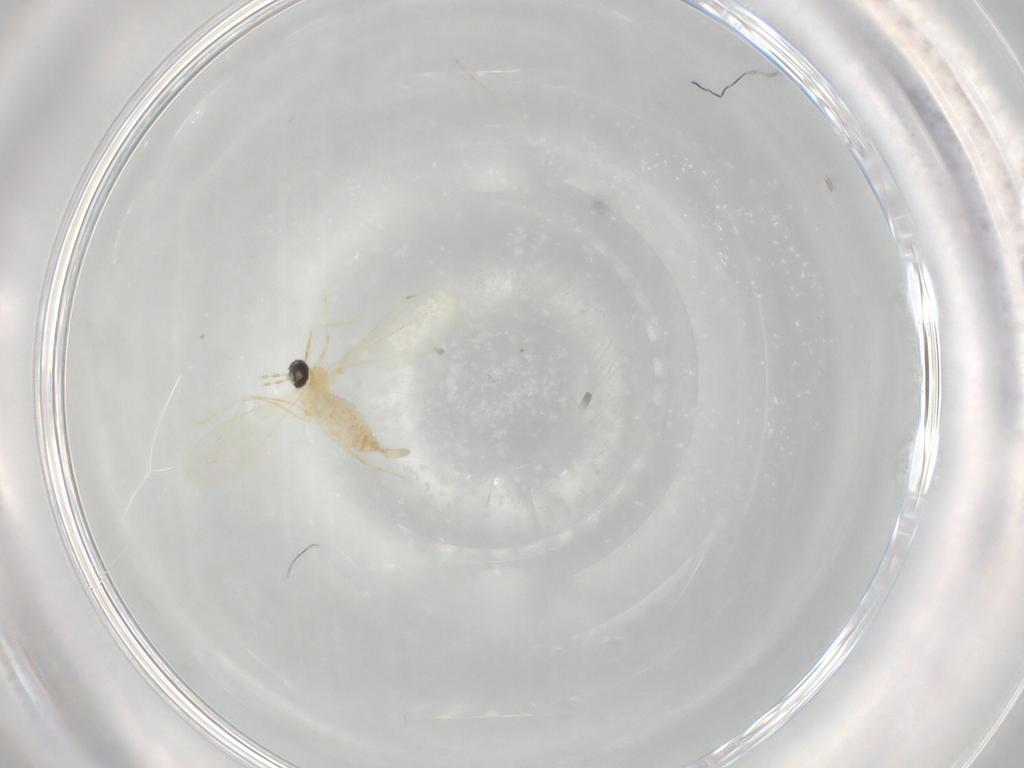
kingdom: Animalia
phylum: Arthropoda
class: Insecta
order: Diptera
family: Cecidomyiidae
